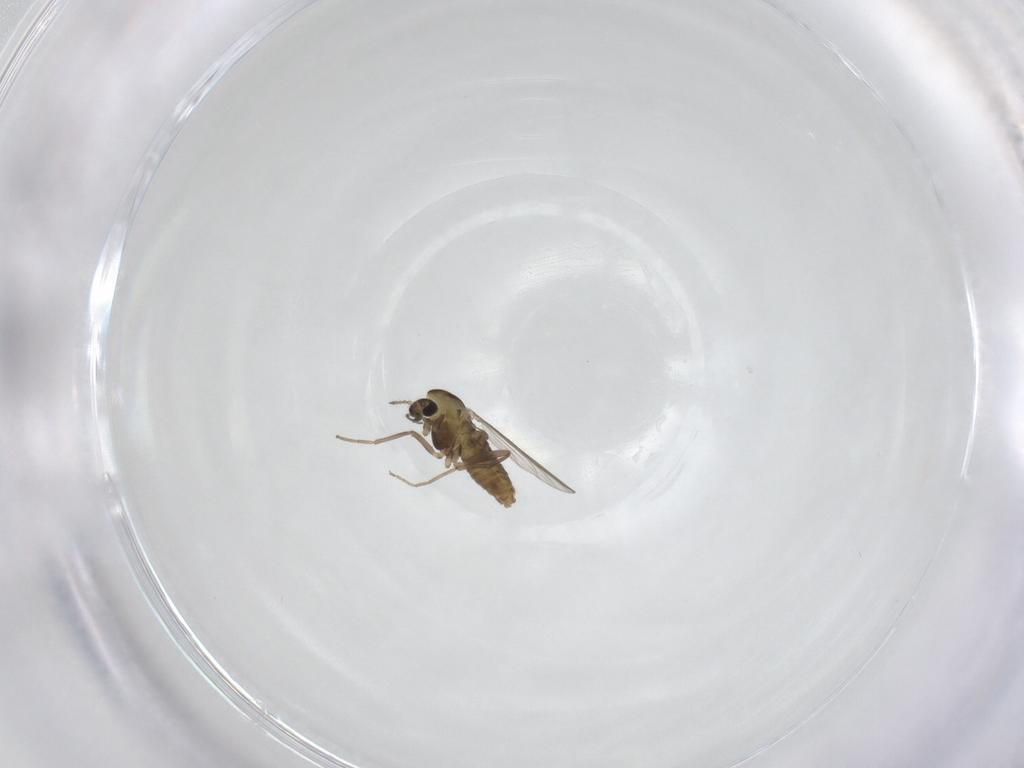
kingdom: Animalia
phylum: Arthropoda
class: Insecta
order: Diptera
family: Chironomidae
